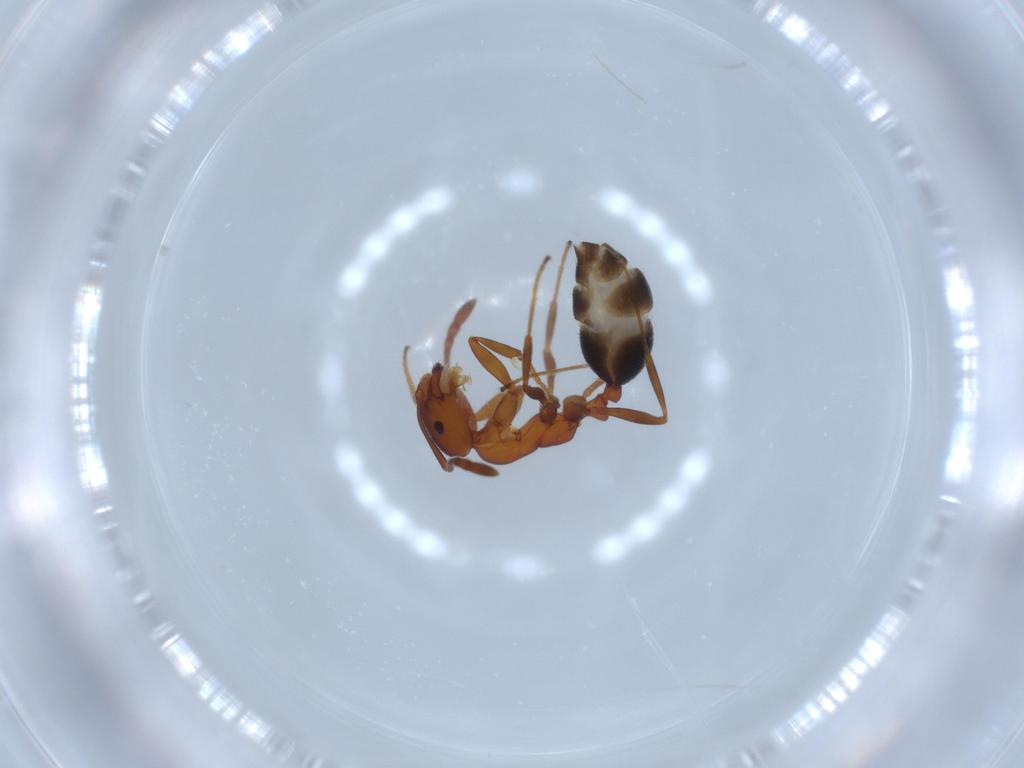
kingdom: Animalia
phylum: Arthropoda
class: Insecta
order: Hymenoptera
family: Formicidae
